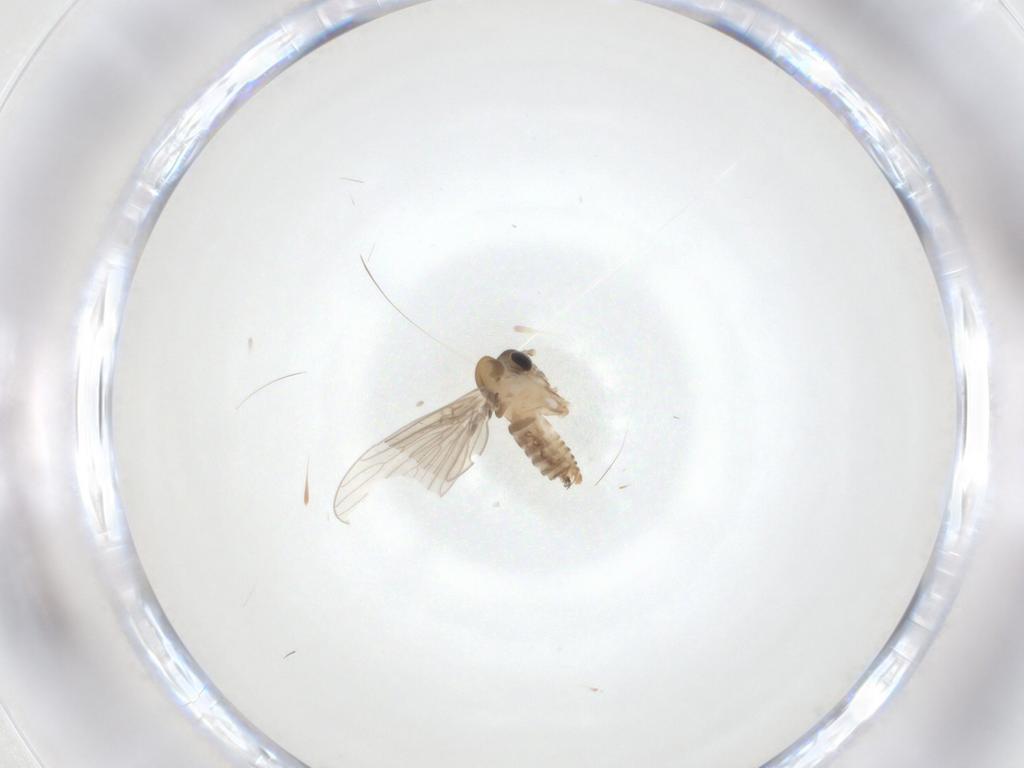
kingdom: Animalia
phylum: Arthropoda
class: Insecta
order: Diptera
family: Psychodidae
